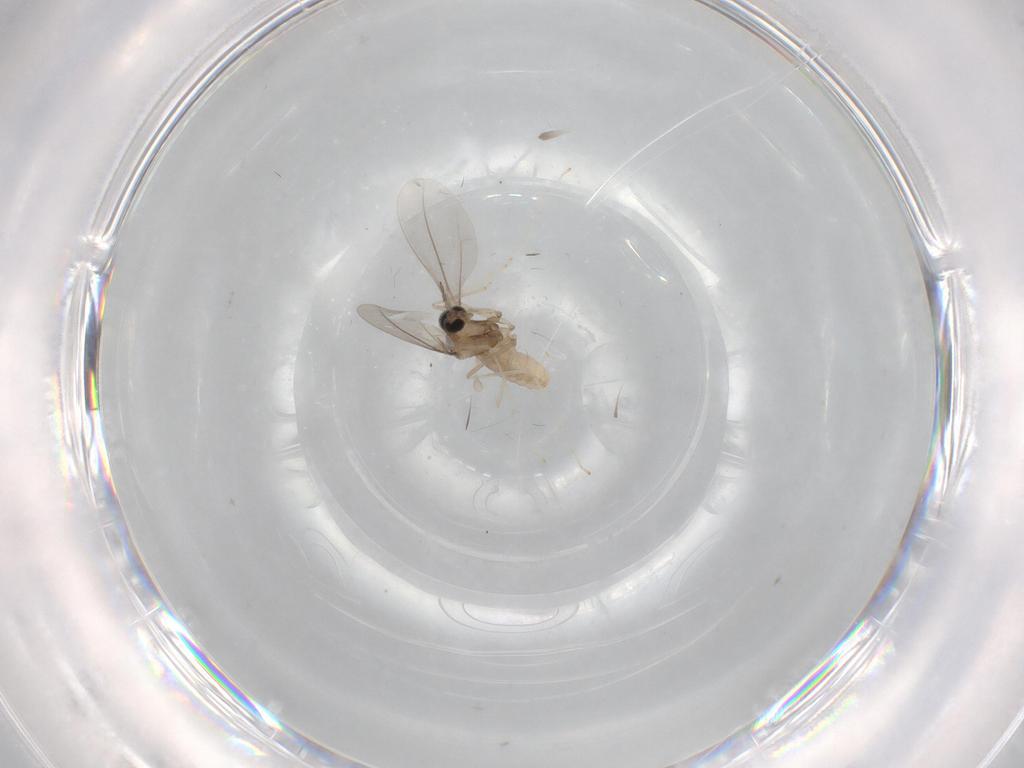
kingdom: Animalia
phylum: Arthropoda
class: Insecta
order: Diptera
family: Cecidomyiidae
